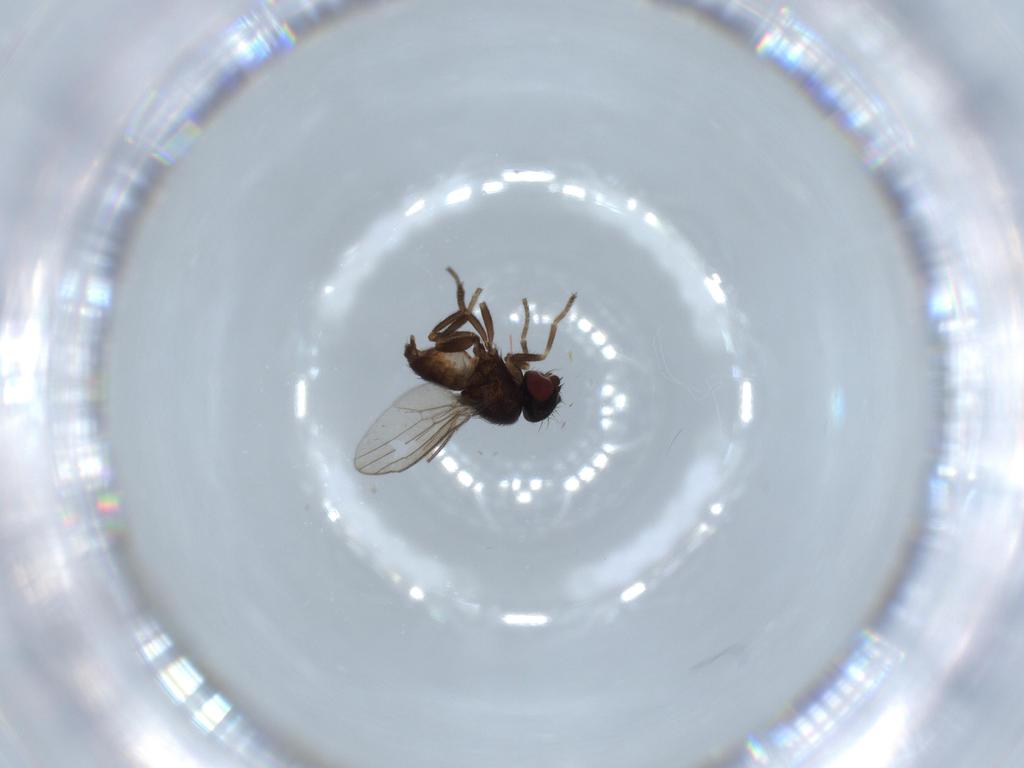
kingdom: Animalia
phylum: Arthropoda
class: Insecta
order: Diptera
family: Milichiidae
